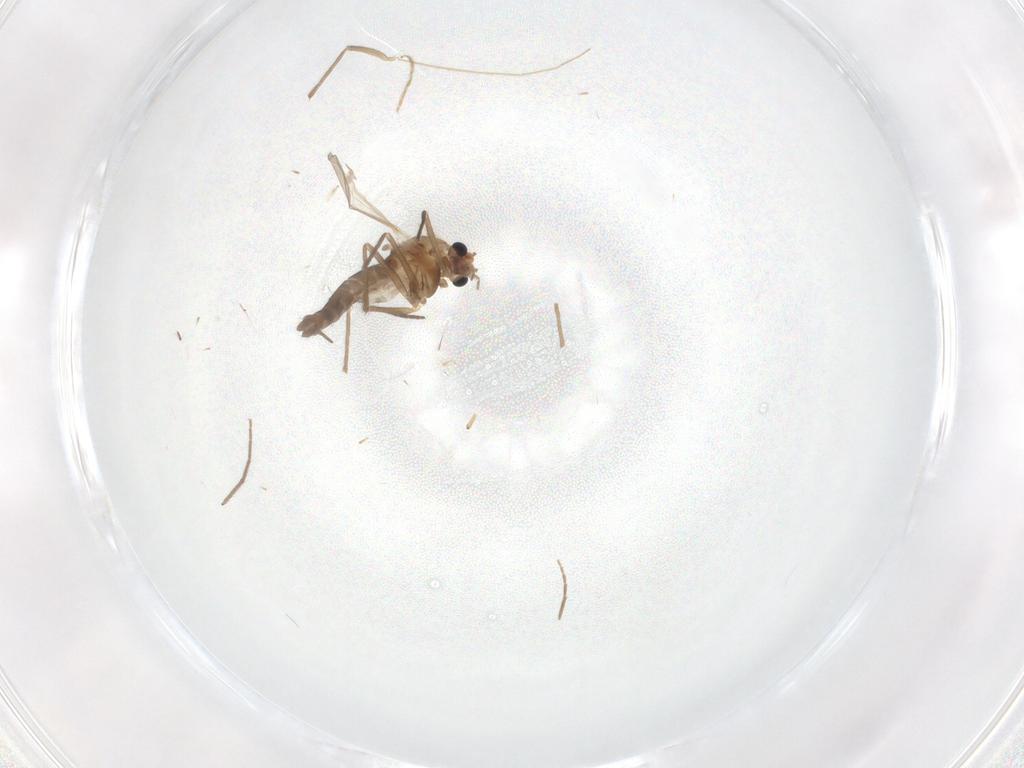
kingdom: Animalia
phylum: Arthropoda
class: Insecta
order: Diptera
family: Chironomidae
